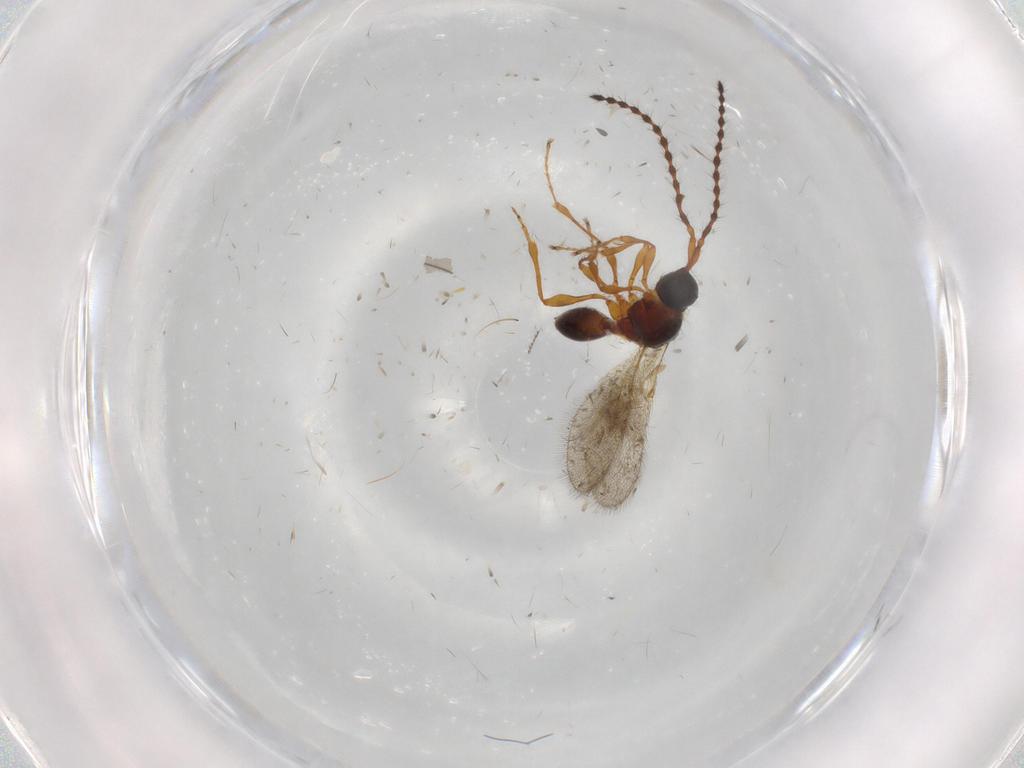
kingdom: Animalia
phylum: Arthropoda
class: Insecta
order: Hymenoptera
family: Diapriidae
